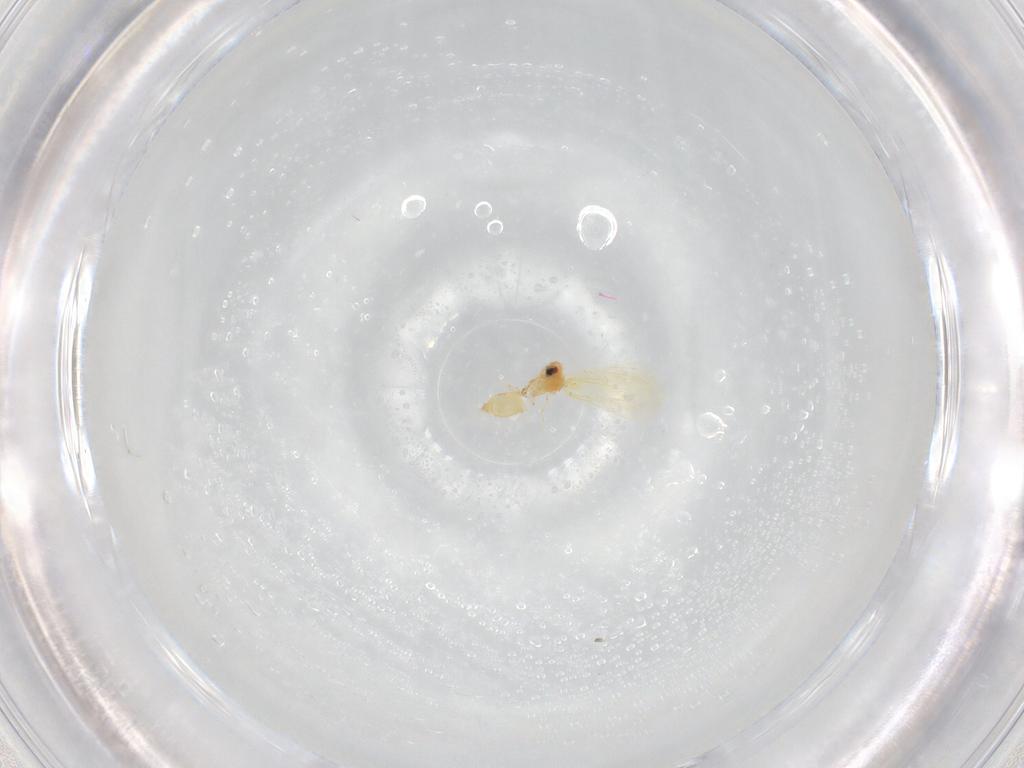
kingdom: Animalia
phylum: Arthropoda
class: Insecta
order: Hemiptera
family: Aleyrodidae
